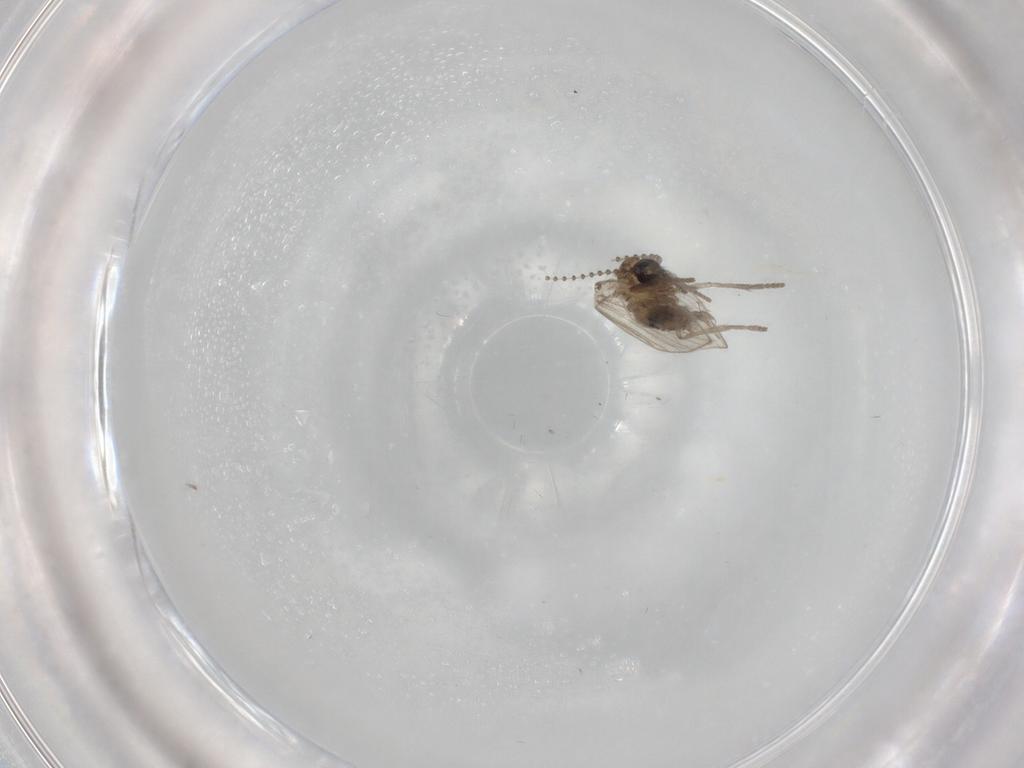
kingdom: Animalia
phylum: Arthropoda
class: Insecta
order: Diptera
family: Psychodidae
